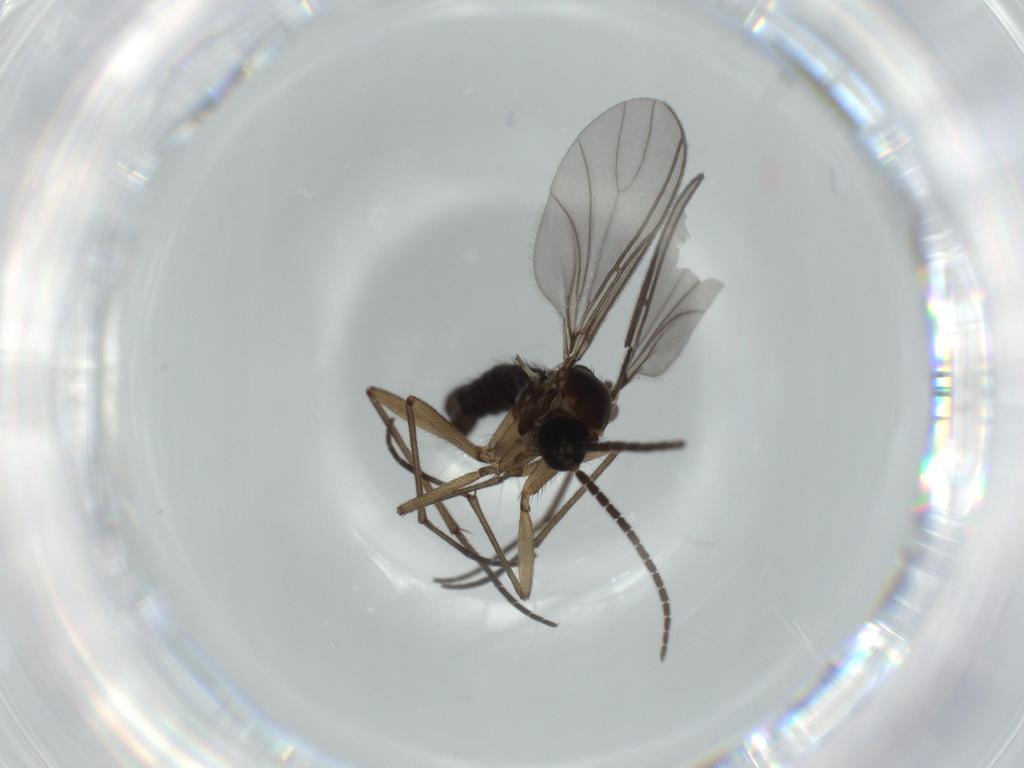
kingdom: Animalia
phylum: Arthropoda
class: Insecta
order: Diptera
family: Sciaridae
